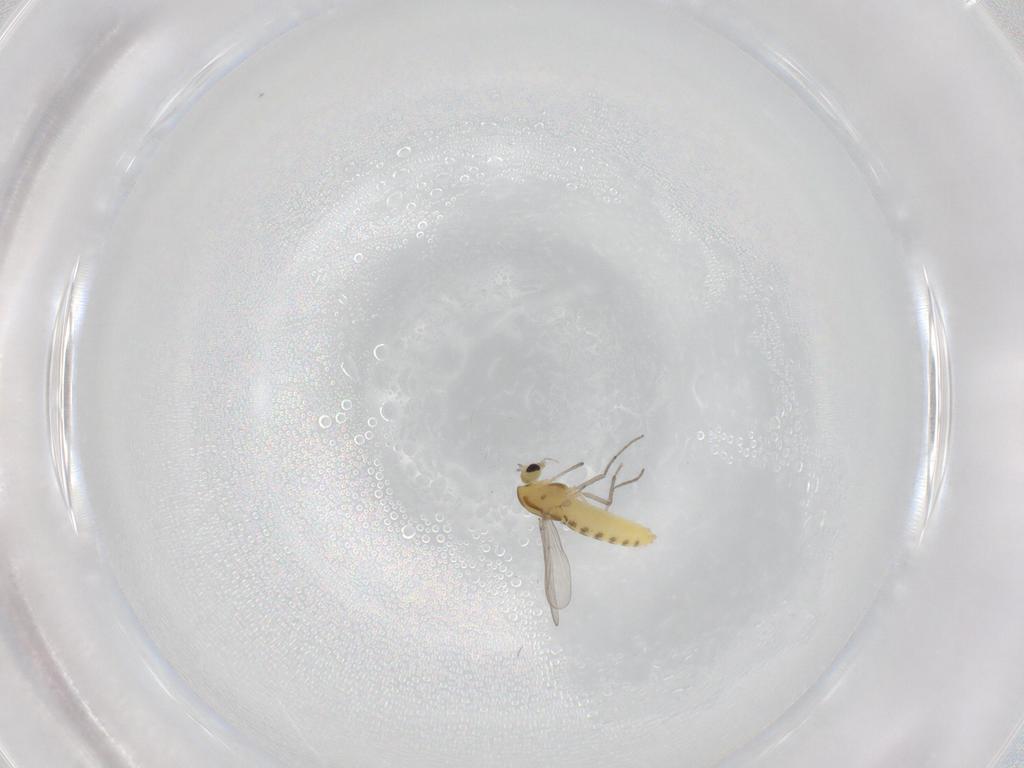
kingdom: Animalia
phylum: Arthropoda
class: Insecta
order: Diptera
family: Chironomidae
